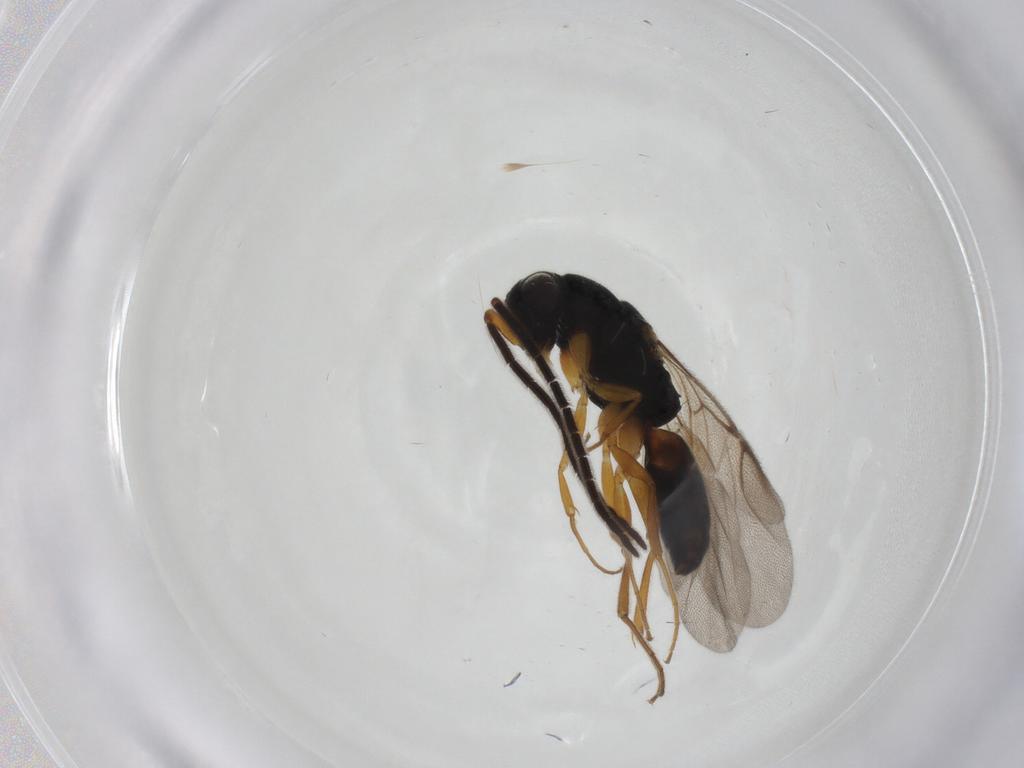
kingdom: Animalia
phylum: Arthropoda
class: Insecta
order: Hymenoptera
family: Chrysididae
